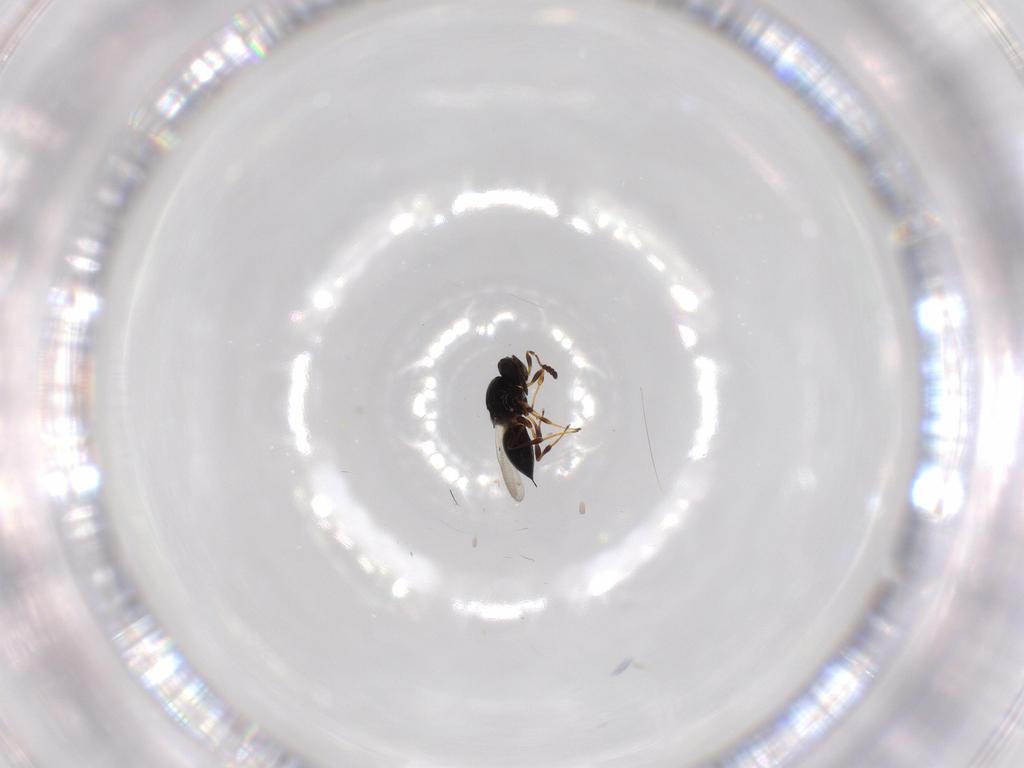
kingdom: Animalia
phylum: Arthropoda
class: Insecta
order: Hymenoptera
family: Platygastridae
